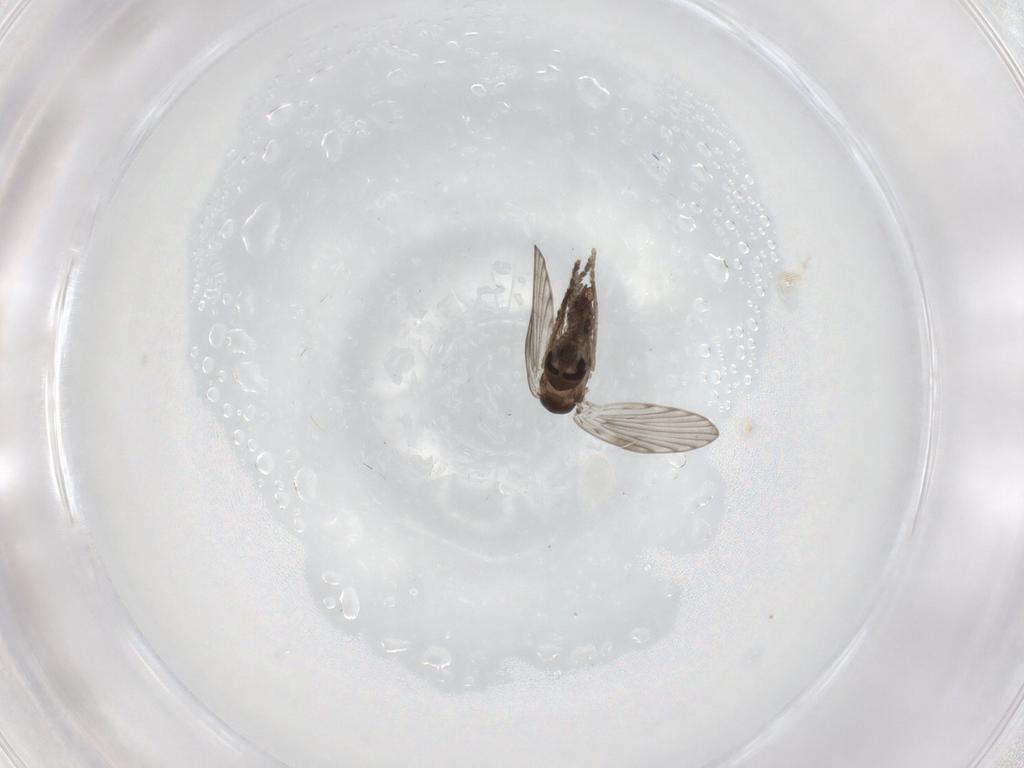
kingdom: Animalia
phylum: Arthropoda
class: Insecta
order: Diptera
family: Psychodidae
